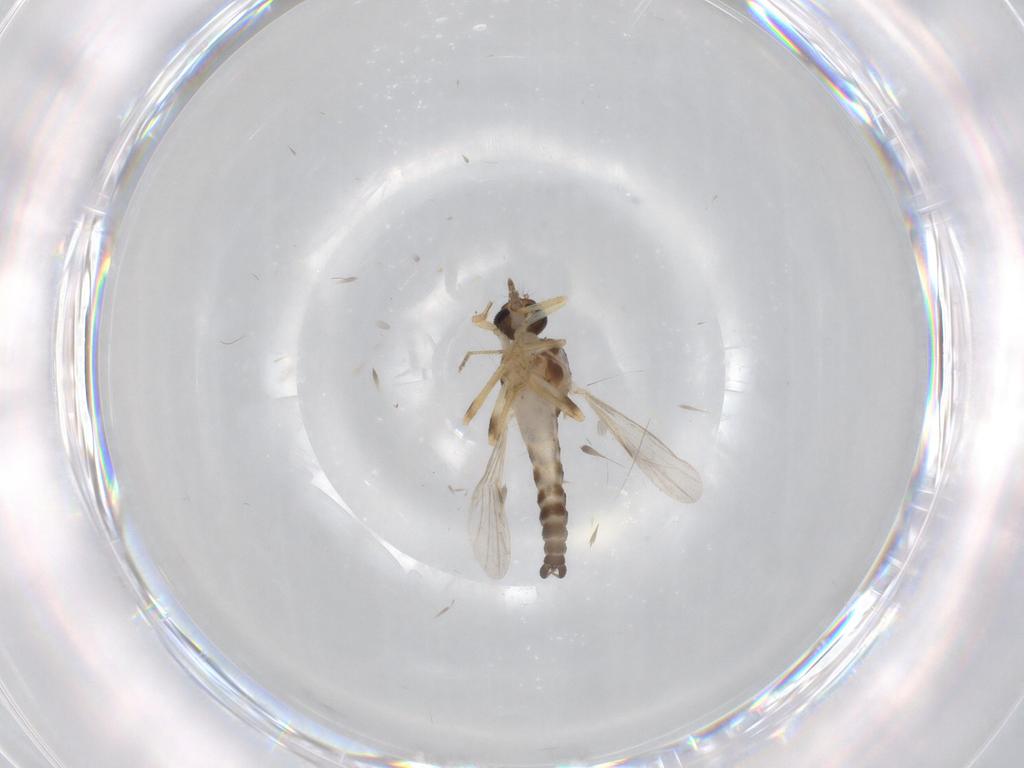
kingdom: Animalia
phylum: Arthropoda
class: Insecta
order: Diptera
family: Ceratopogonidae
